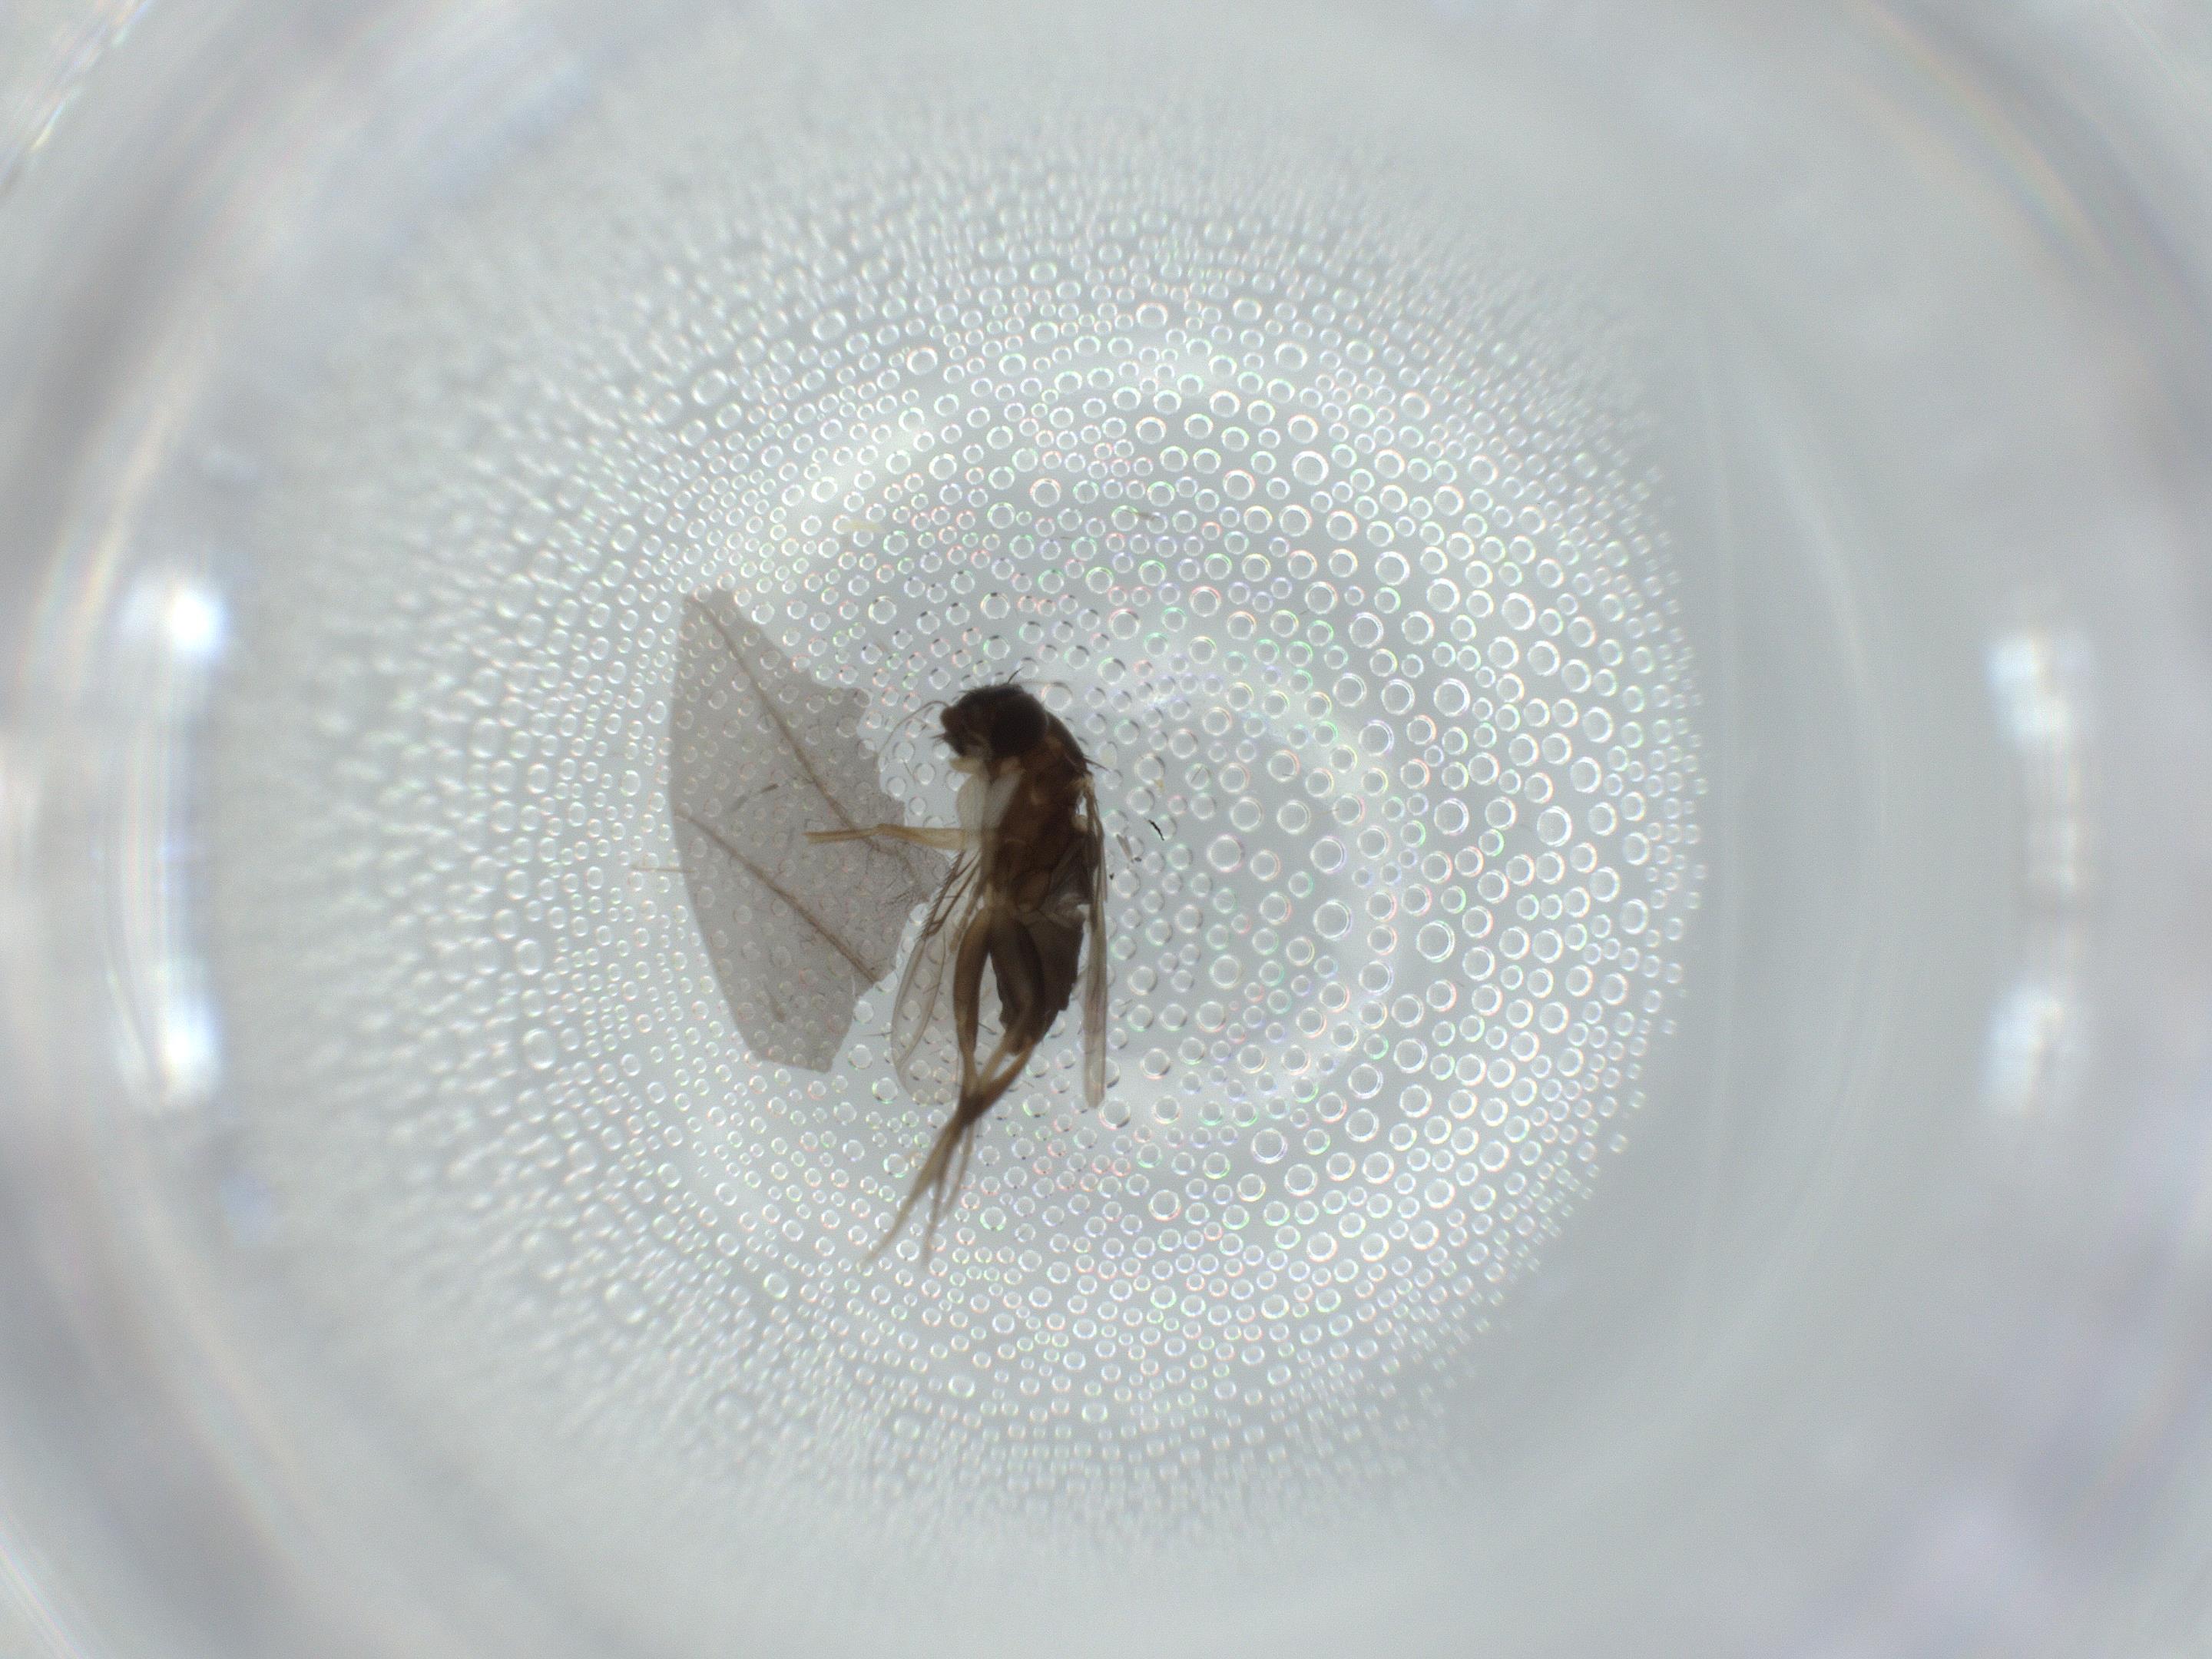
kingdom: Animalia
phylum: Arthropoda
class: Insecta
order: Diptera
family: Phoridae
